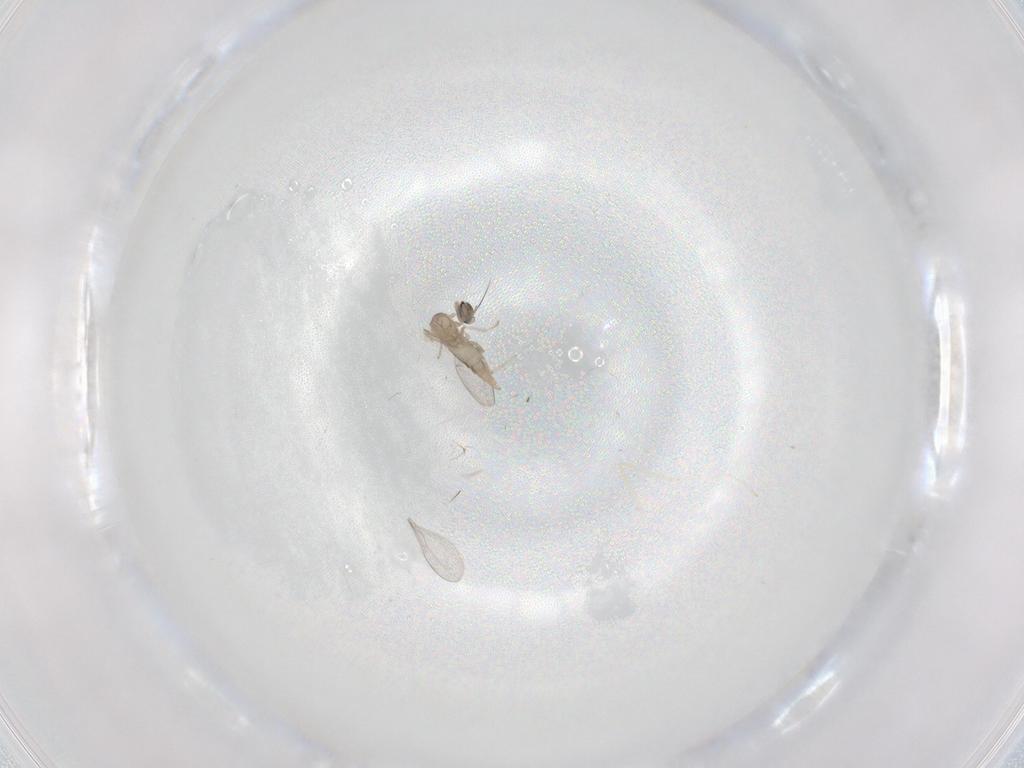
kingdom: Animalia
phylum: Arthropoda
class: Insecta
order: Diptera
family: Cecidomyiidae
